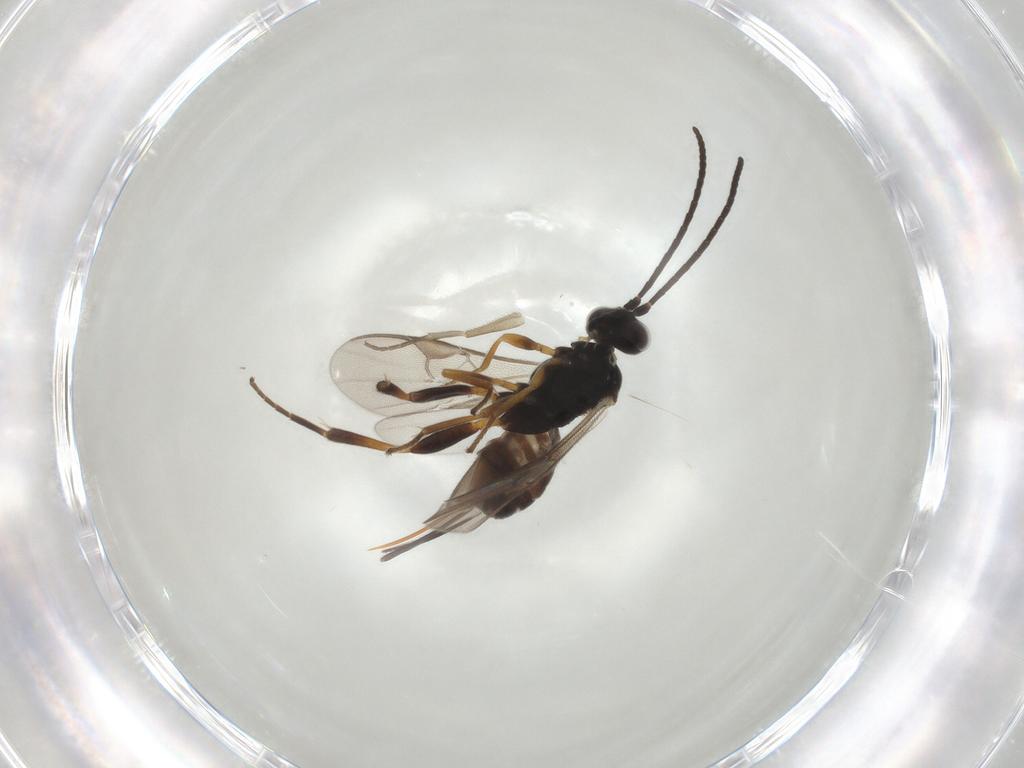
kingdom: Animalia
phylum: Arthropoda
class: Insecta
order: Hymenoptera
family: Braconidae
